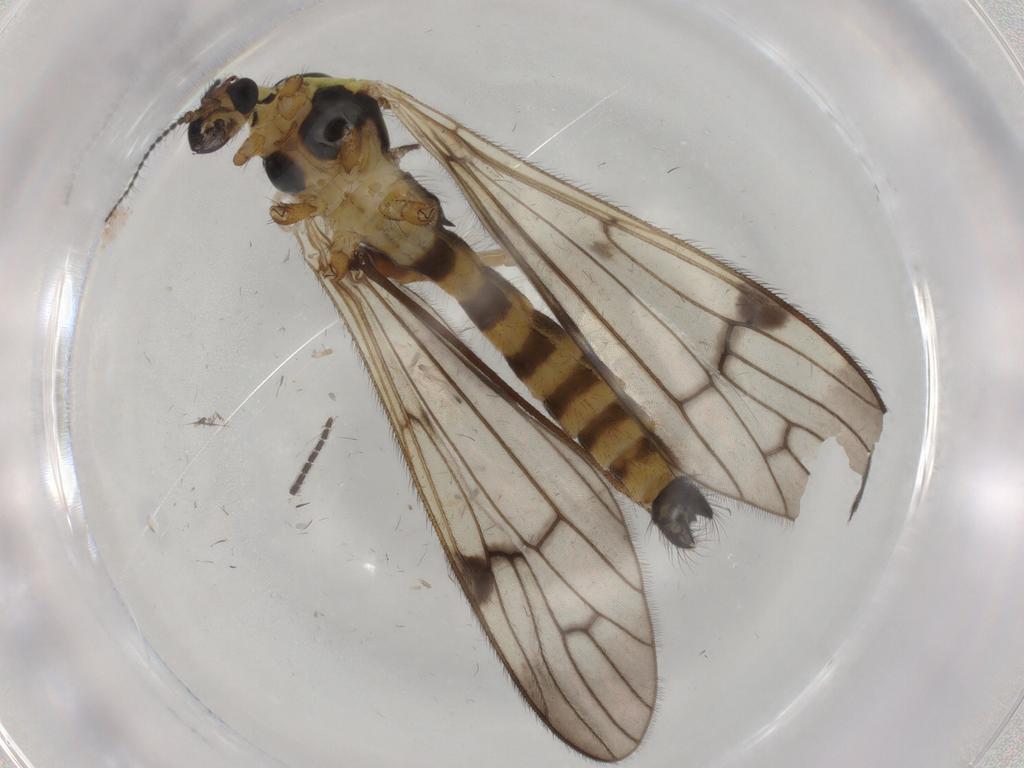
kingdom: Animalia
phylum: Arthropoda
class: Insecta
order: Diptera
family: Limoniidae
